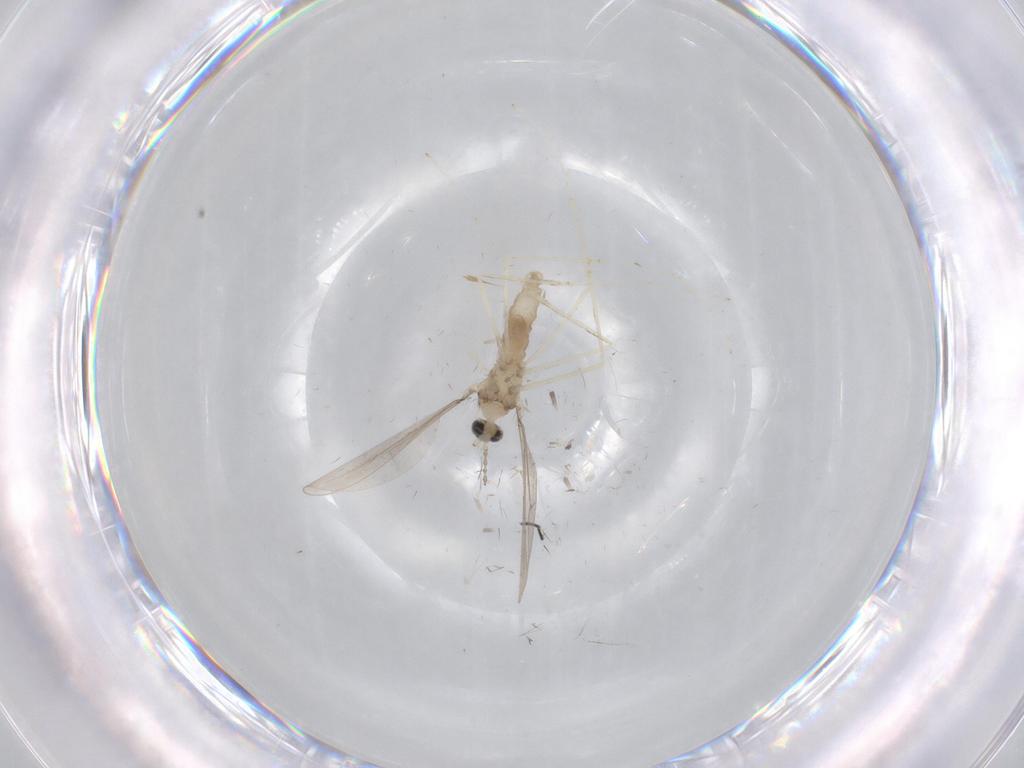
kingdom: Animalia
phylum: Arthropoda
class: Insecta
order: Diptera
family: Cecidomyiidae
